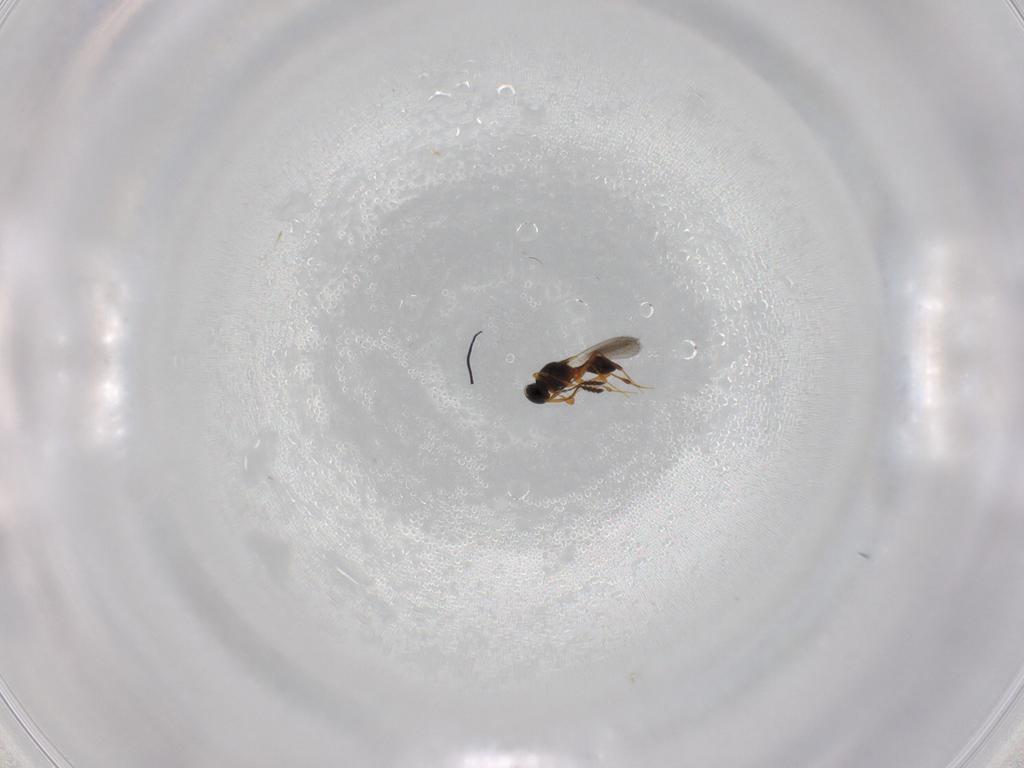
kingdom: Animalia
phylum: Arthropoda
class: Insecta
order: Hymenoptera
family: Platygastridae
